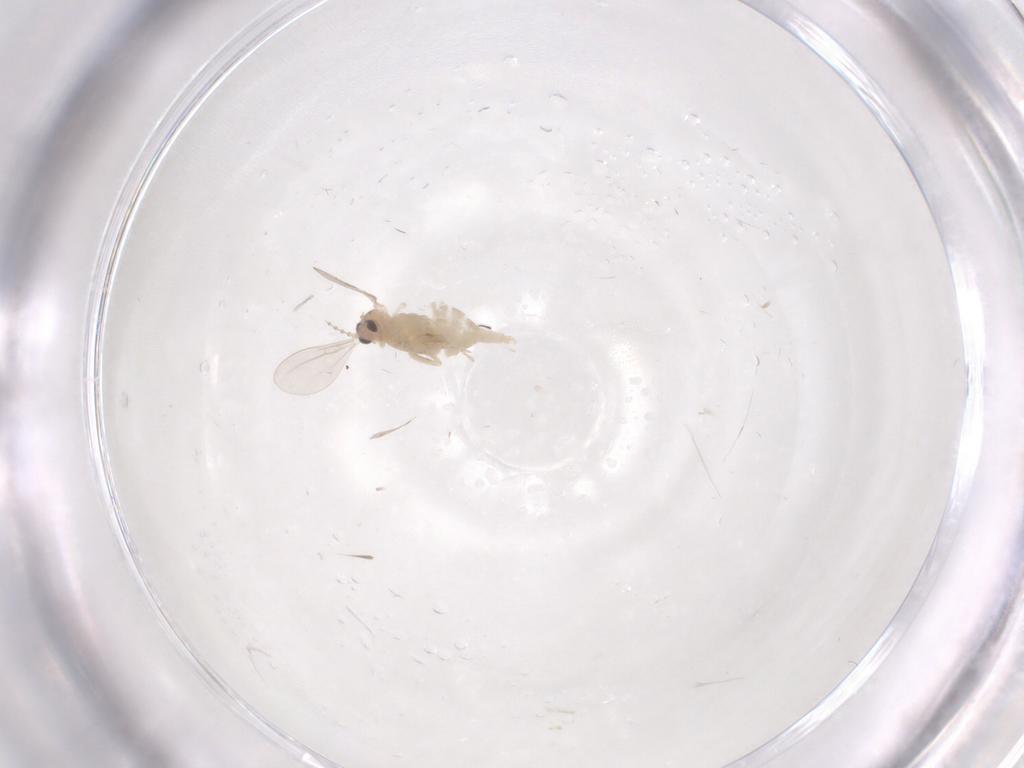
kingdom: Animalia
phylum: Arthropoda
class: Insecta
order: Diptera
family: Cecidomyiidae
